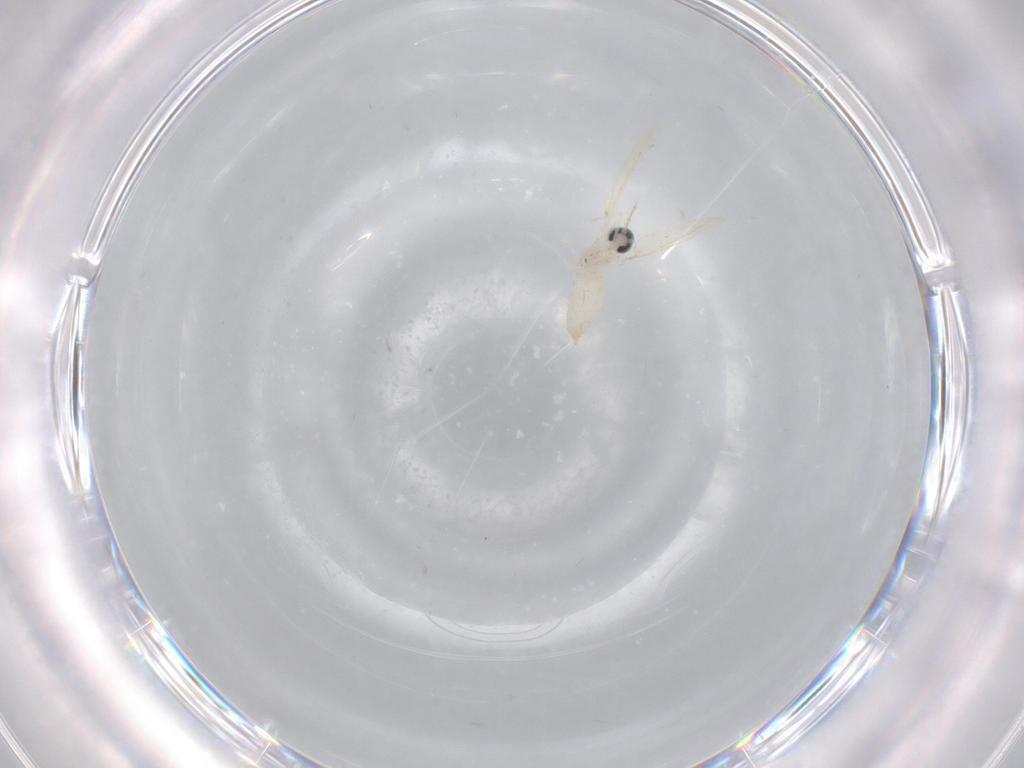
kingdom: Animalia
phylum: Arthropoda
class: Insecta
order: Diptera
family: Cecidomyiidae
